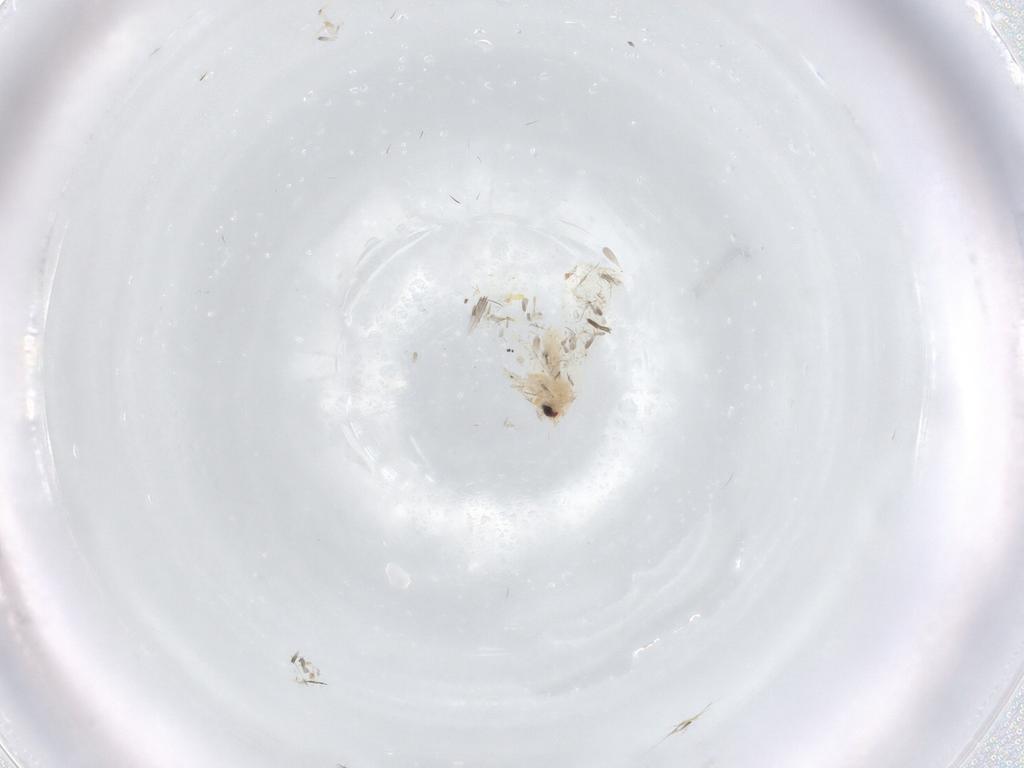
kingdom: Animalia
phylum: Arthropoda
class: Insecta
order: Hemiptera
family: Aleyrodidae
